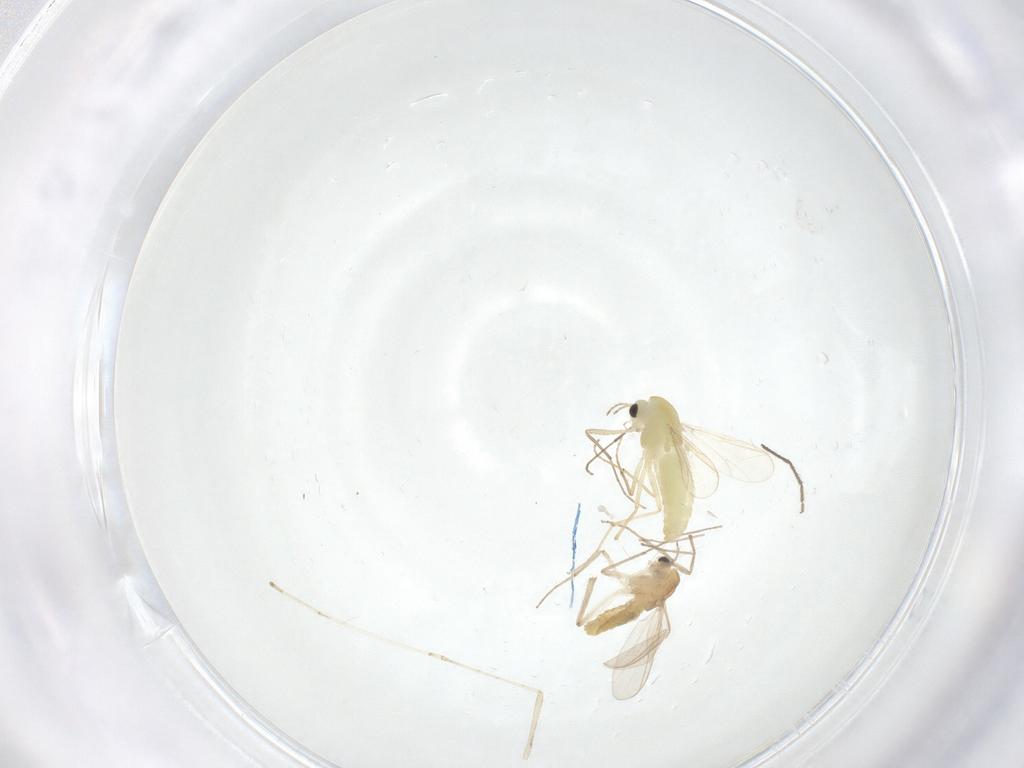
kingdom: Animalia
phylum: Arthropoda
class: Insecta
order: Diptera
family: Chironomidae
